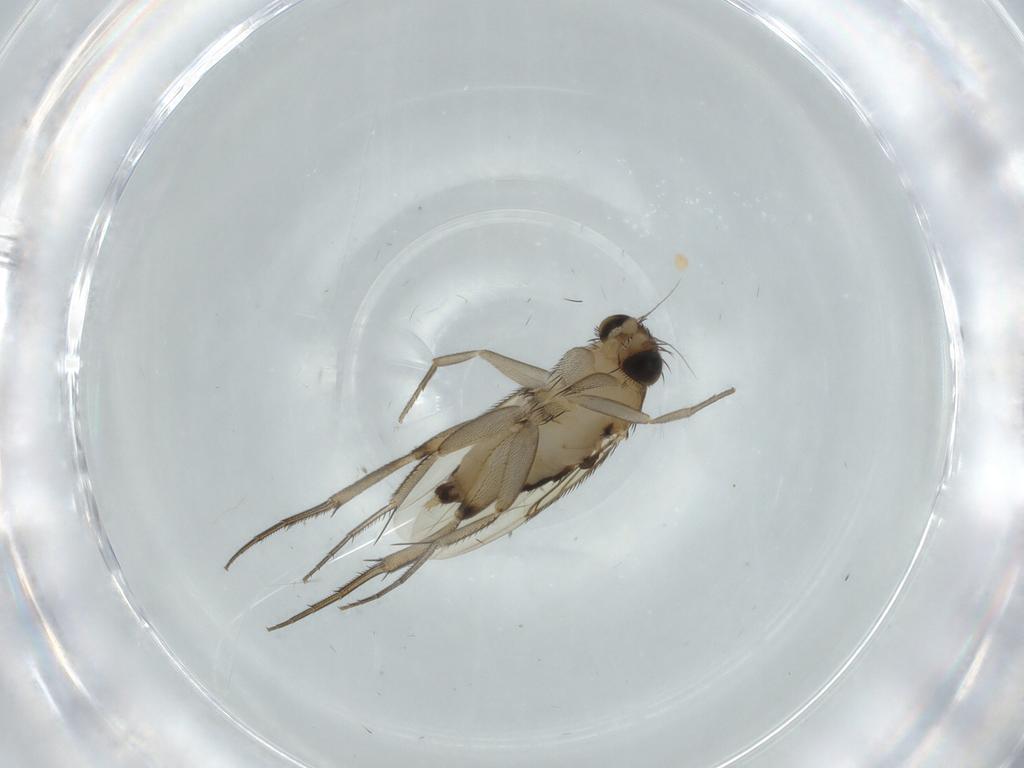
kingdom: Animalia
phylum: Arthropoda
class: Insecta
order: Diptera
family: Phoridae
